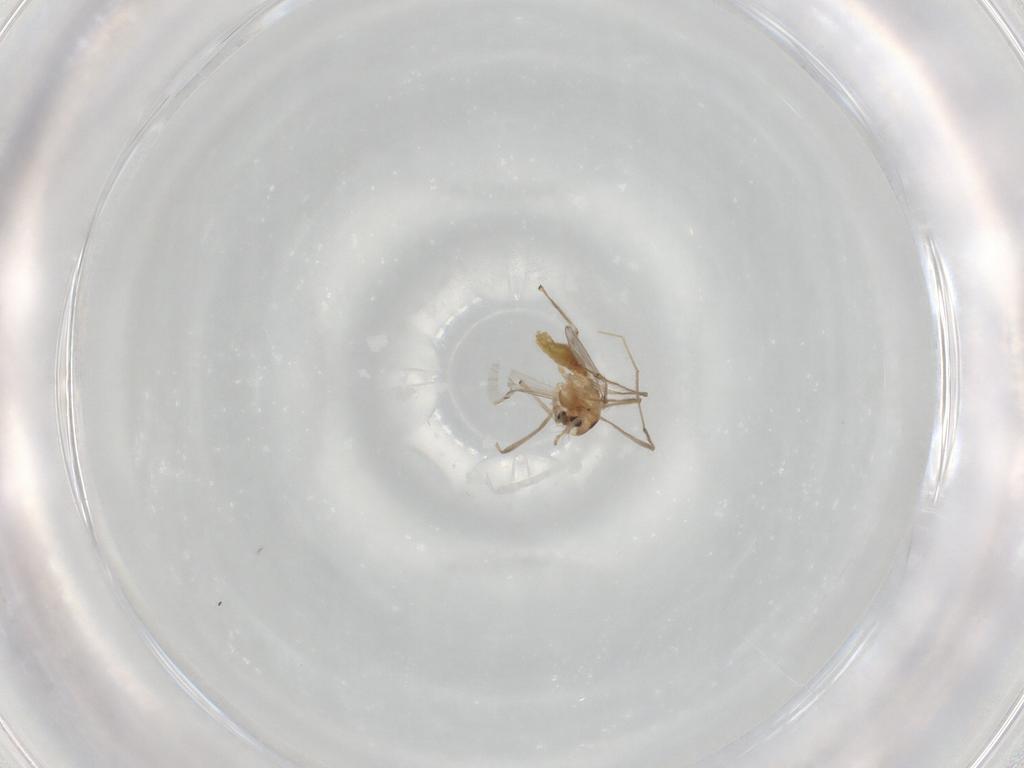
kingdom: Animalia
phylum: Arthropoda
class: Insecta
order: Diptera
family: Chironomidae
